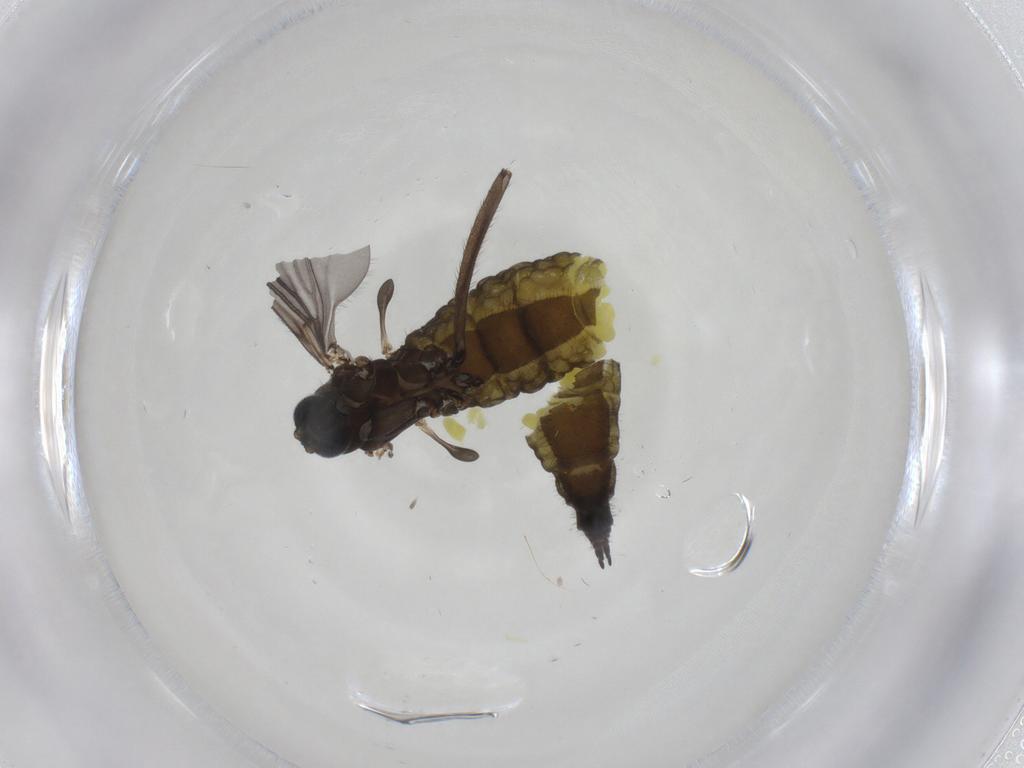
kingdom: Animalia
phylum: Arthropoda
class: Insecta
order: Diptera
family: Sciaridae
